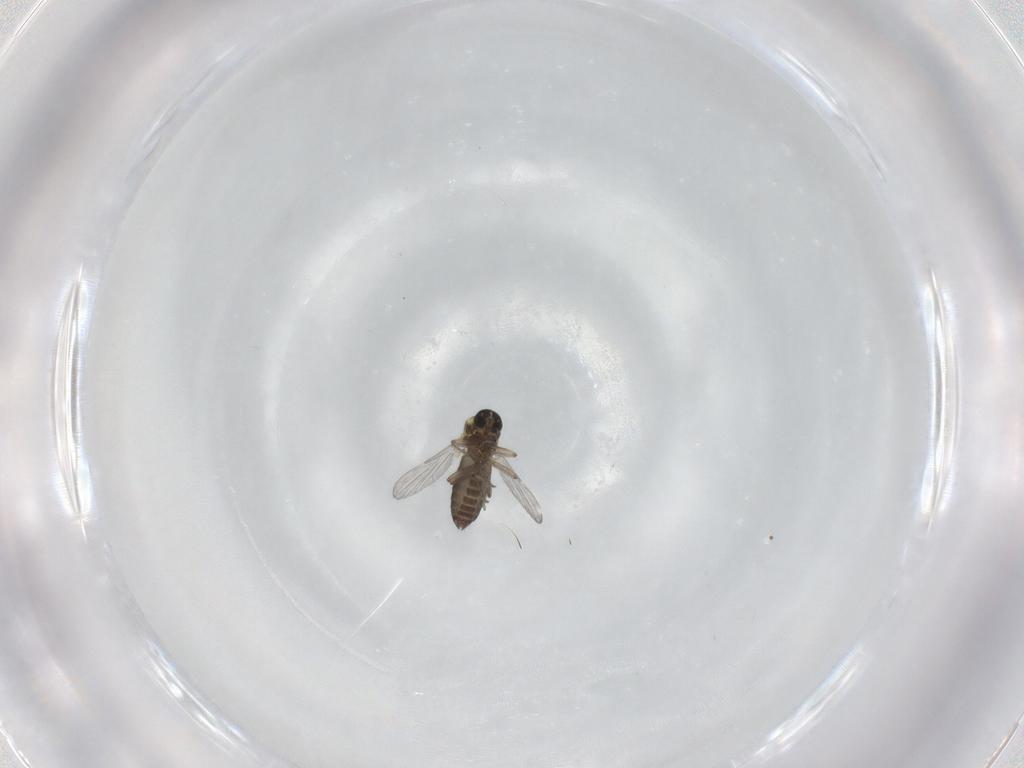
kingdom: Animalia
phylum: Arthropoda
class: Insecta
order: Diptera
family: Ceratopogonidae
